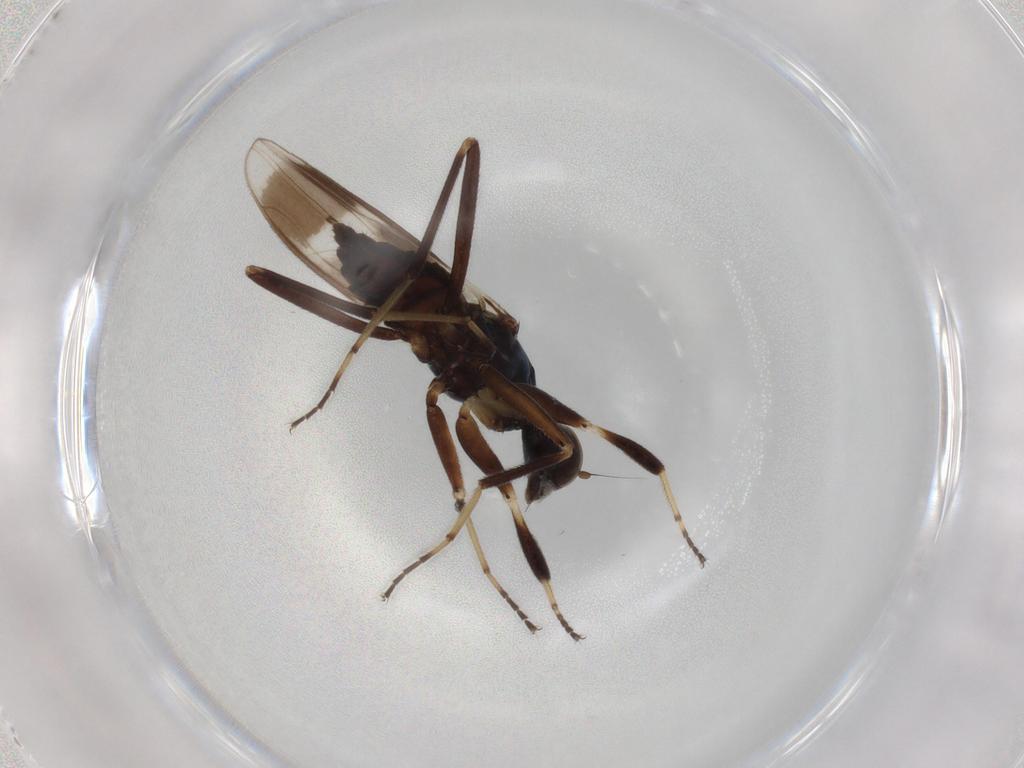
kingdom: Animalia
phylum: Arthropoda
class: Insecta
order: Diptera
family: Hybotidae
